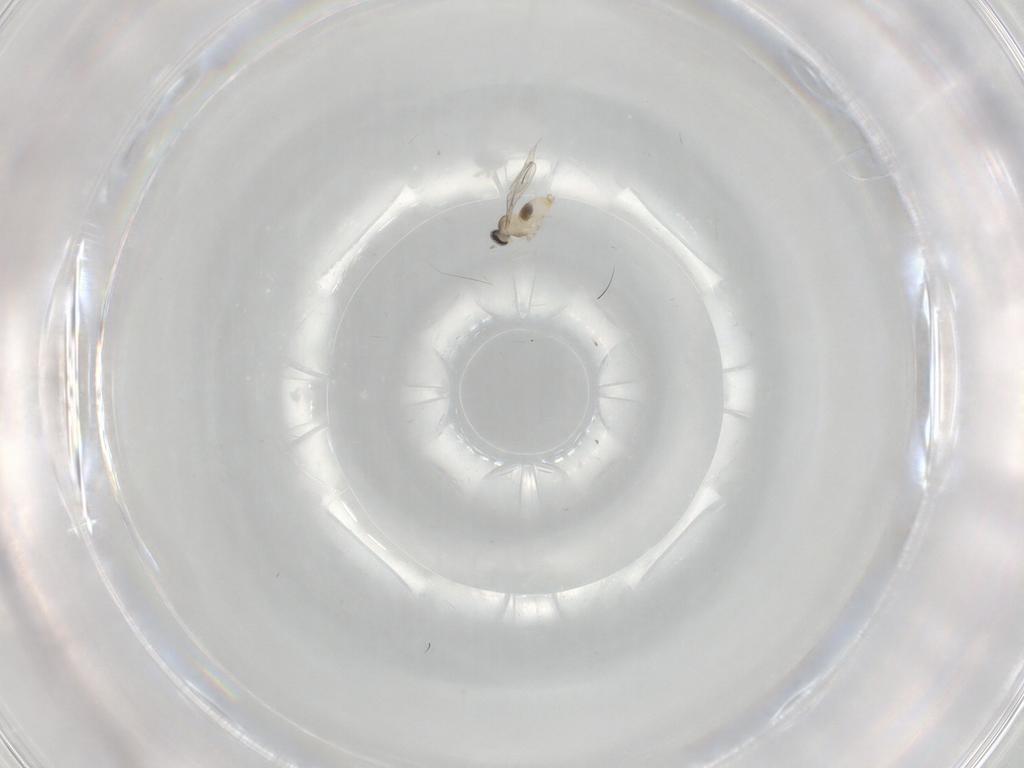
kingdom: Animalia
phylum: Arthropoda
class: Insecta
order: Diptera
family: Cecidomyiidae
